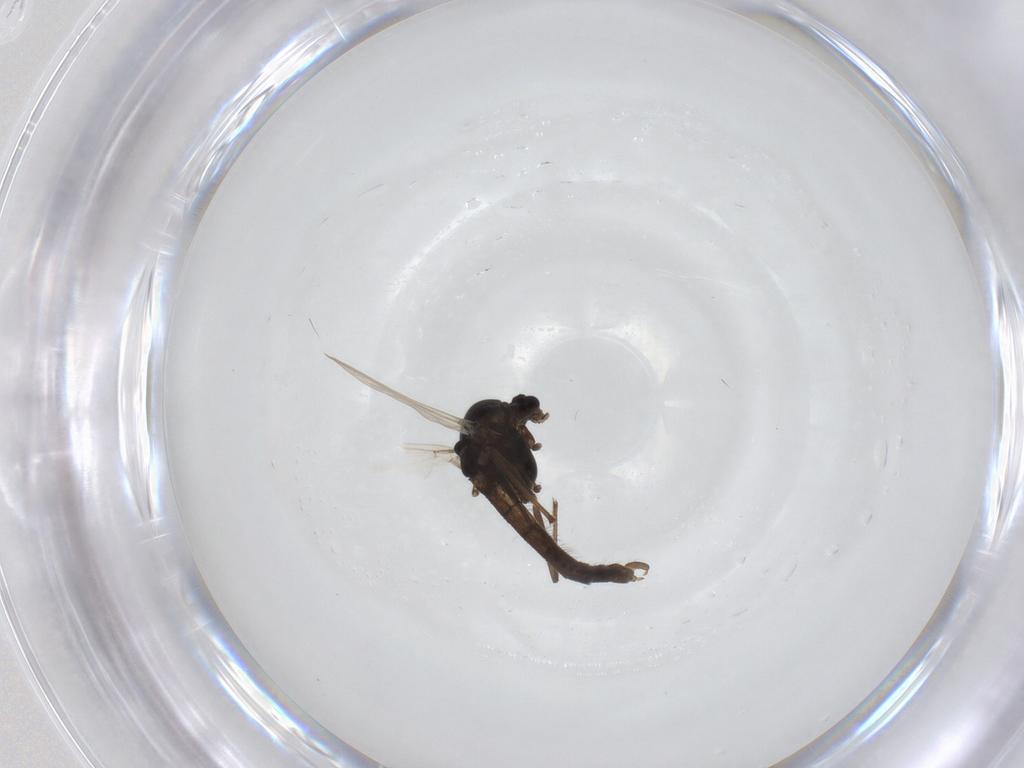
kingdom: Animalia
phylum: Arthropoda
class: Insecta
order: Diptera
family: Chironomidae
